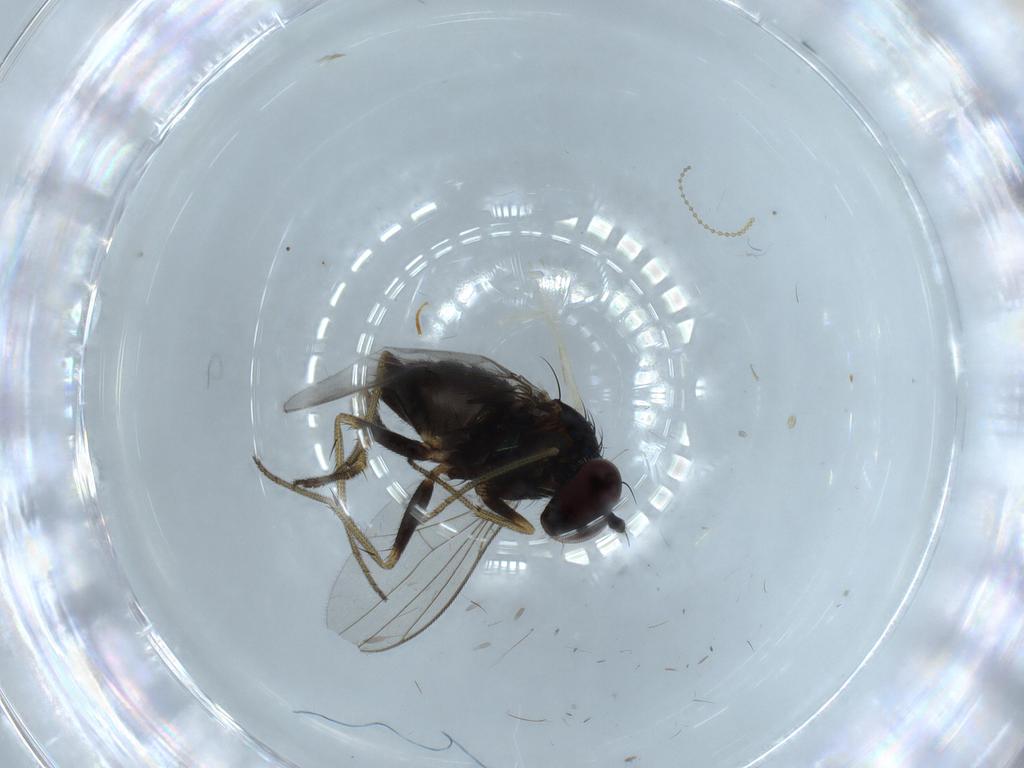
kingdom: Animalia
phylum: Arthropoda
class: Insecta
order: Diptera
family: Dolichopodidae
